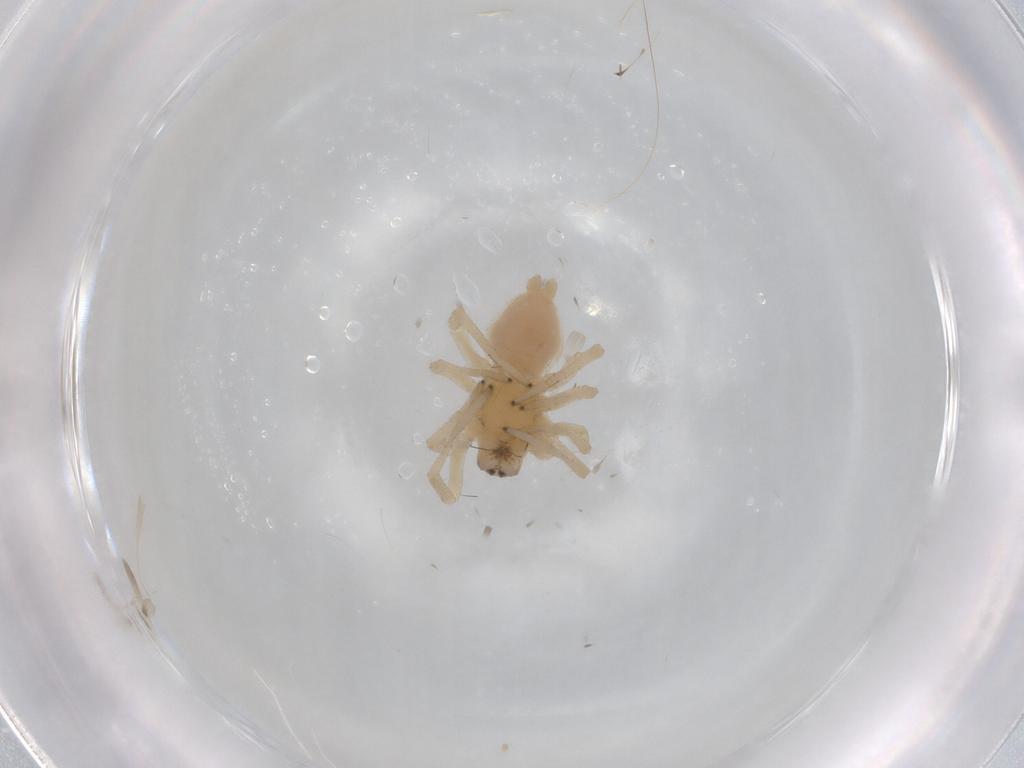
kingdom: Animalia
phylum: Arthropoda
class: Arachnida
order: Araneae
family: Cheiracanthiidae
